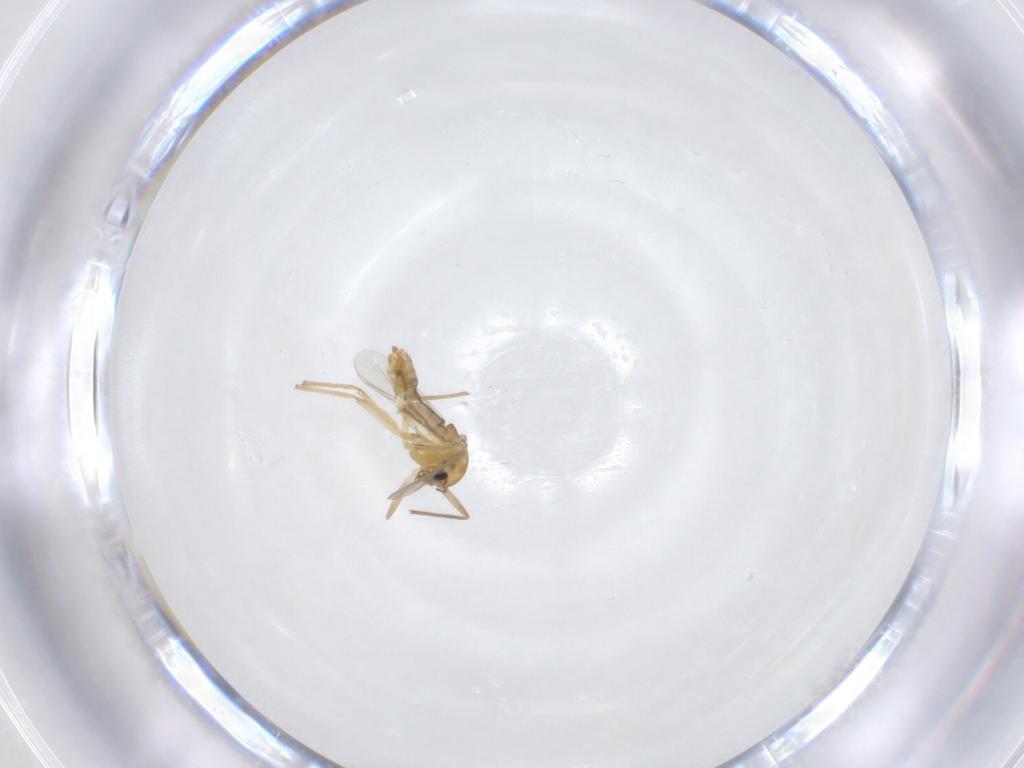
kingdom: Animalia
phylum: Arthropoda
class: Insecta
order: Diptera
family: Chironomidae
